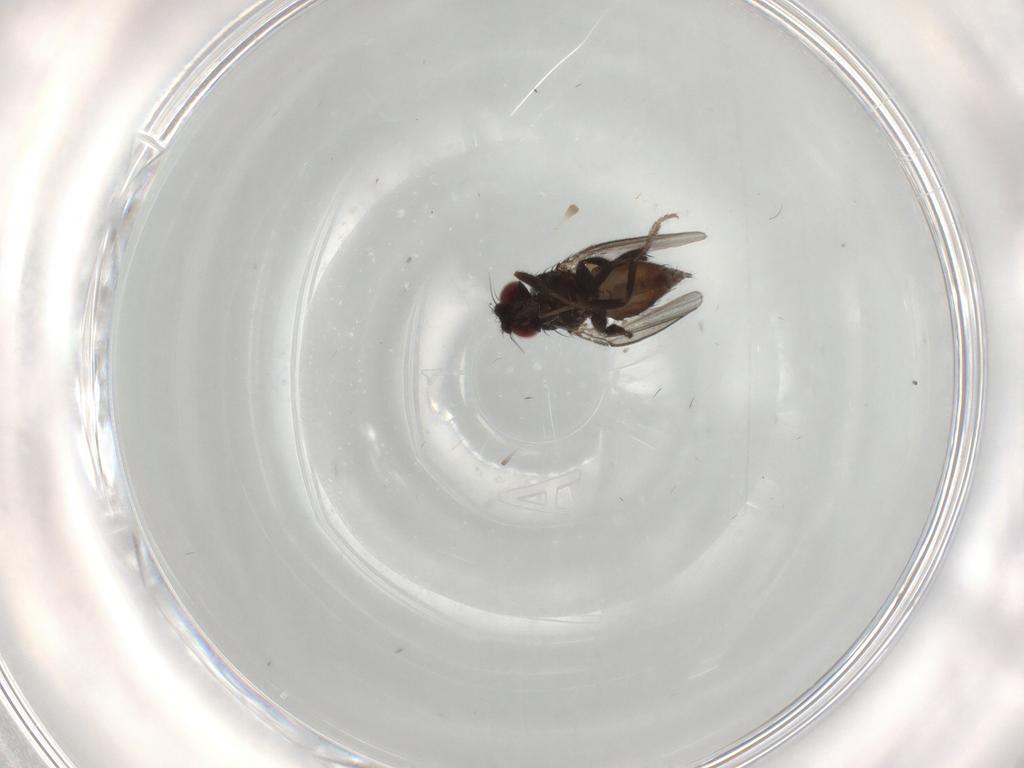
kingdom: Animalia
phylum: Arthropoda
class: Insecta
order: Diptera
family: Milichiidae
